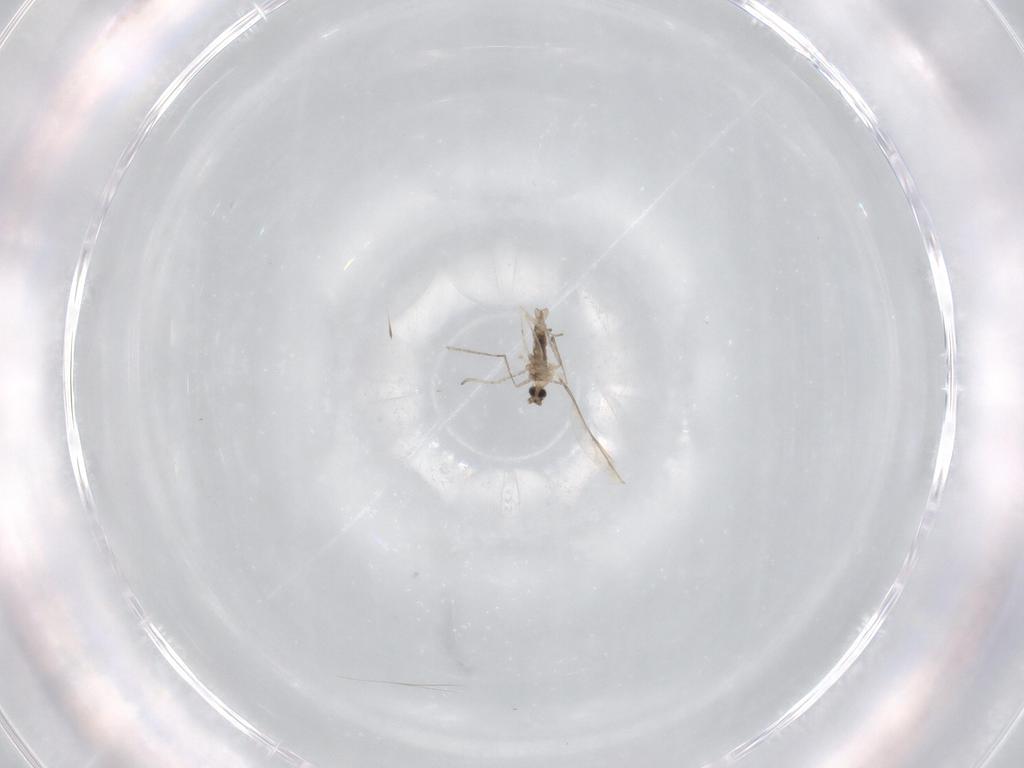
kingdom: Animalia
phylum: Arthropoda
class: Insecta
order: Diptera
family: Cecidomyiidae
